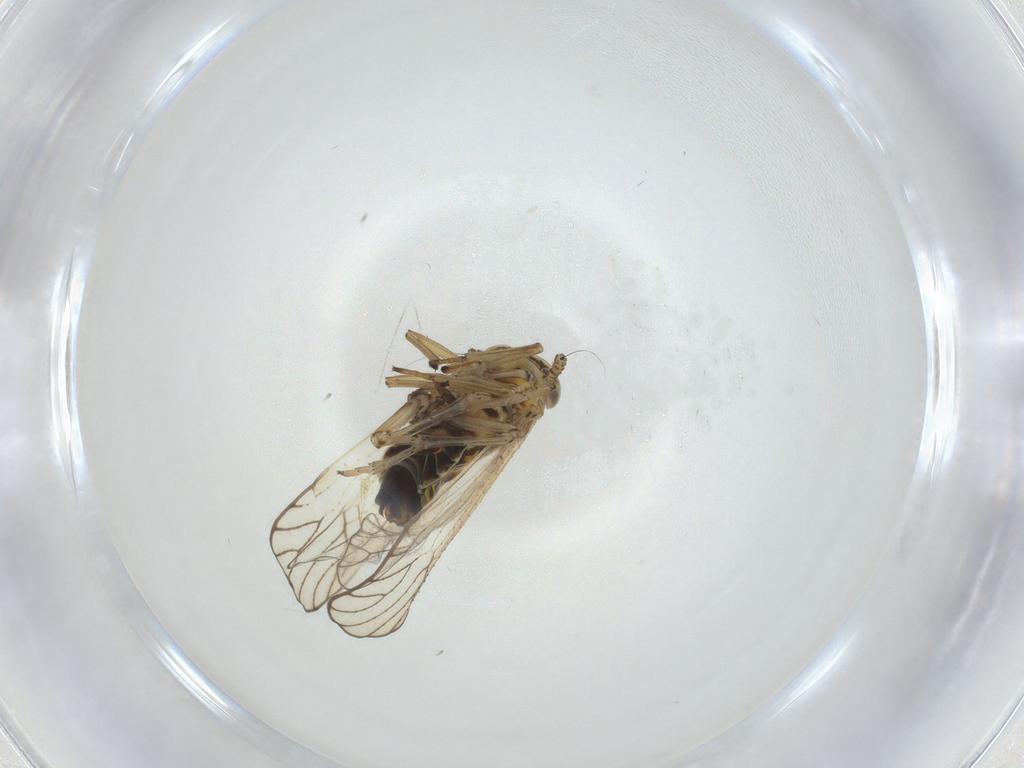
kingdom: Animalia
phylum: Arthropoda
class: Insecta
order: Hemiptera
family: Delphacidae
